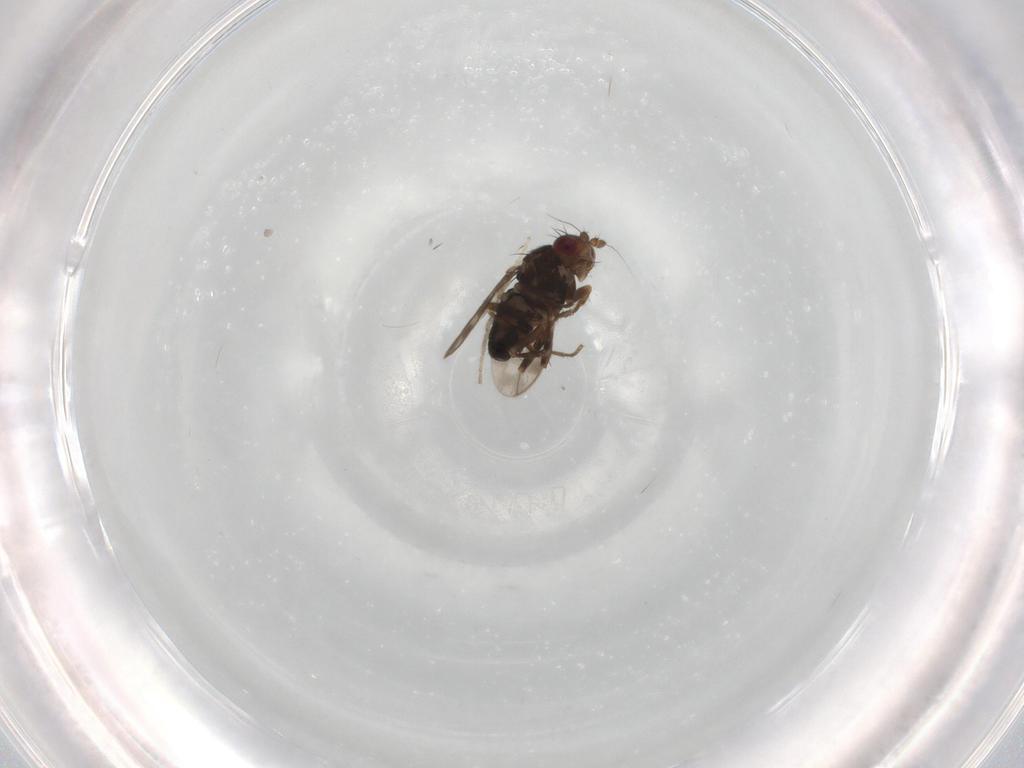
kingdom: Animalia
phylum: Arthropoda
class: Insecta
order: Diptera
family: Sphaeroceridae
